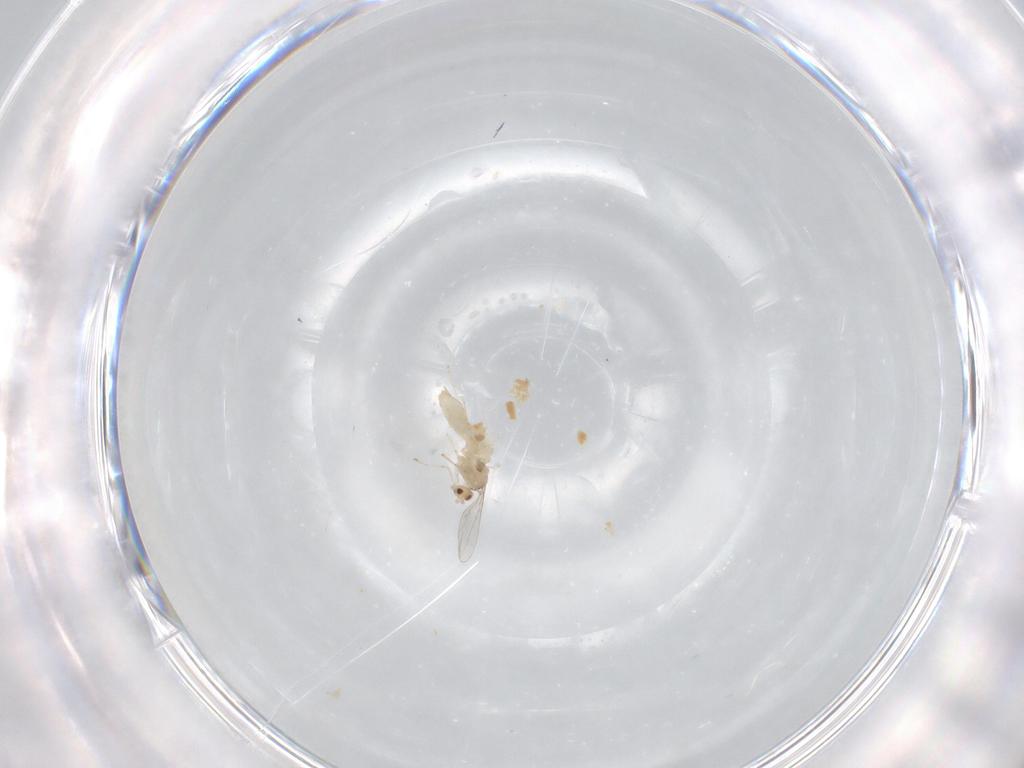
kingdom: Animalia
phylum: Arthropoda
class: Insecta
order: Diptera
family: Cecidomyiidae
